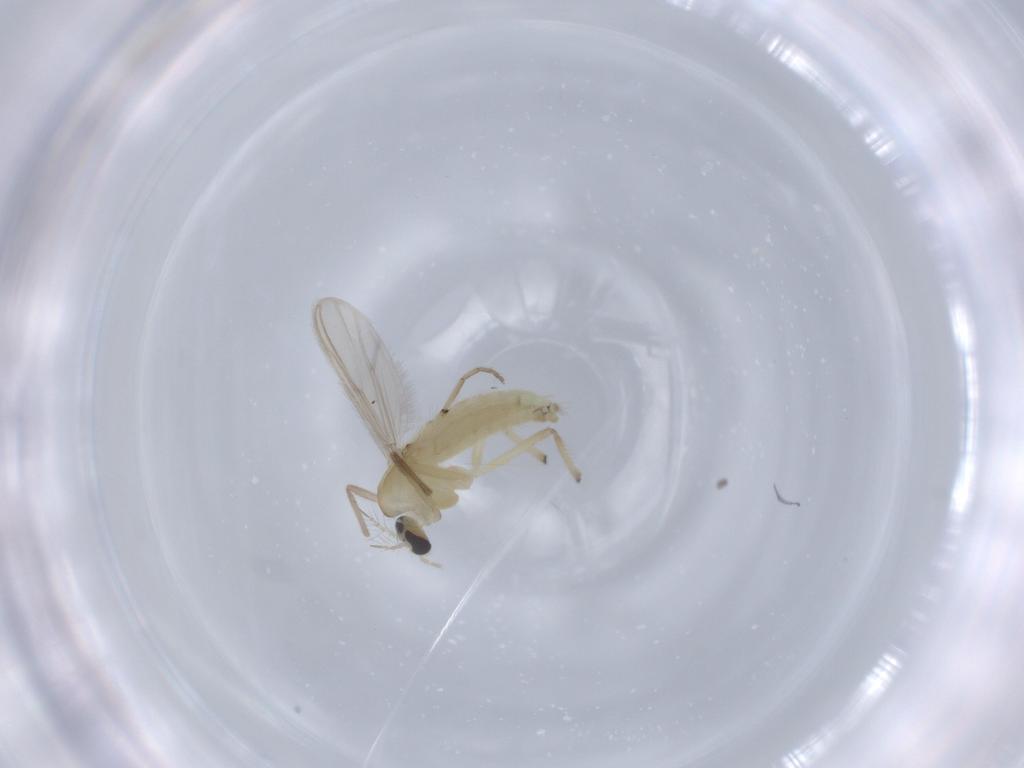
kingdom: Animalia
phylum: Arthropoda
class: Insecta
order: Diptera
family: Chironomidae
